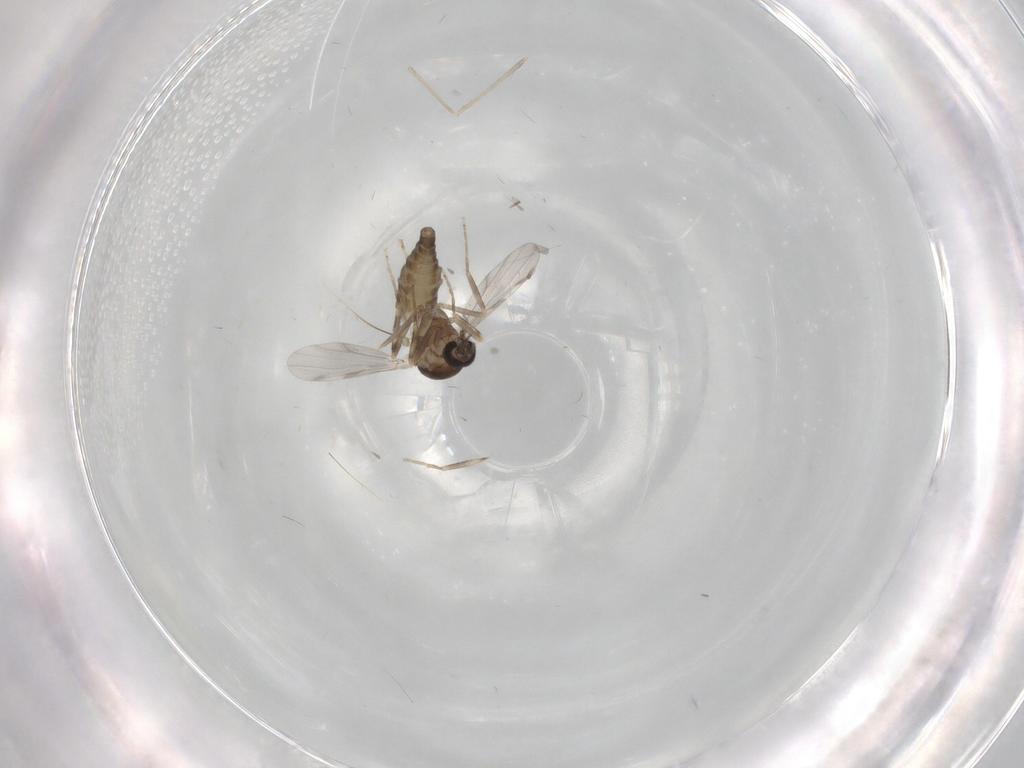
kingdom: Animalia
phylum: Arthropoda
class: Insecta
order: Diptera
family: Ceratopogonidae
